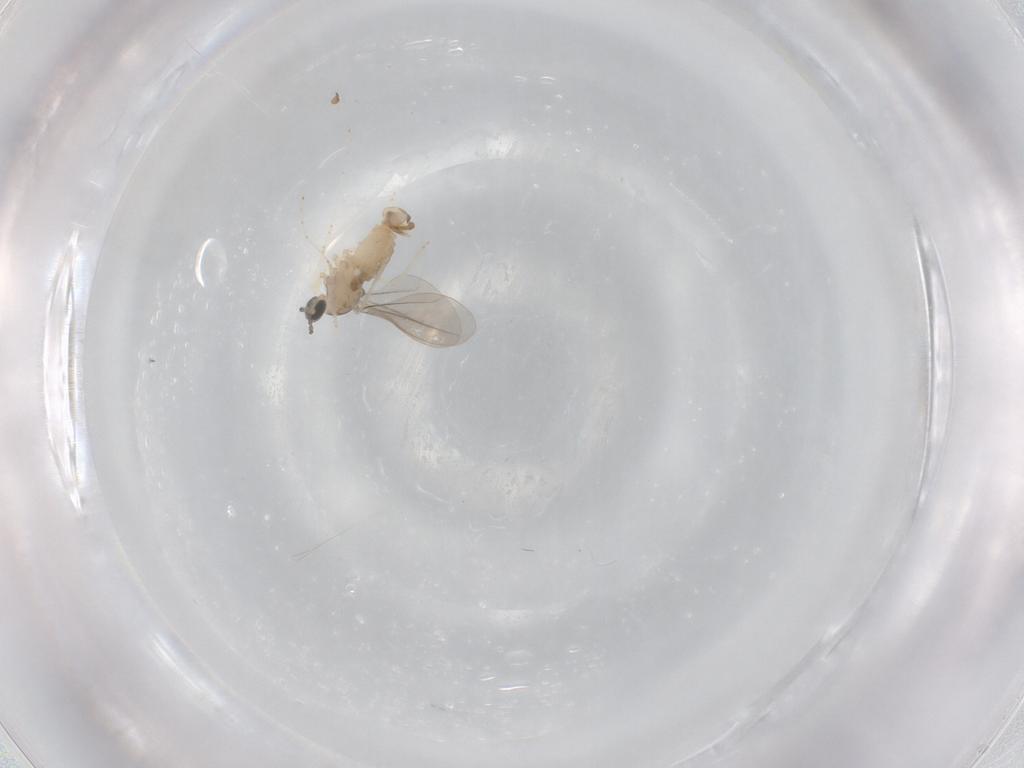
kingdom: Animalia
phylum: Arthropoda
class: Insecta
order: Diptera
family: Cecidomyiidae
